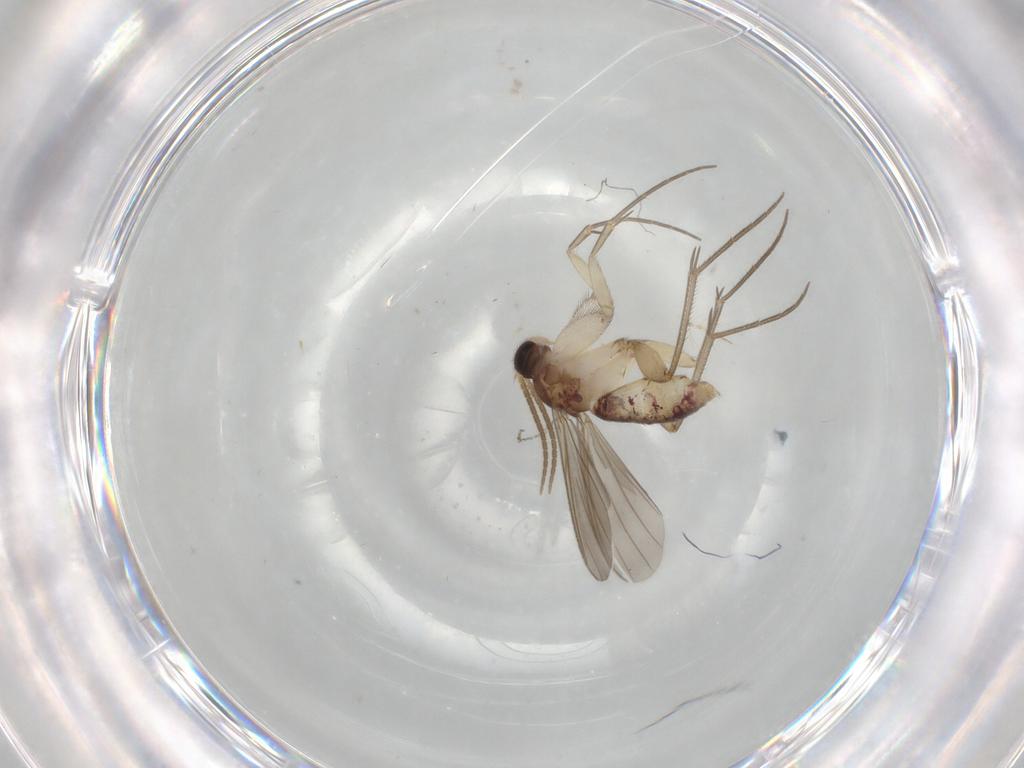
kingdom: Animalia
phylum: Arthropoda
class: Insecta
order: Diptera
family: Mycetophilidae
